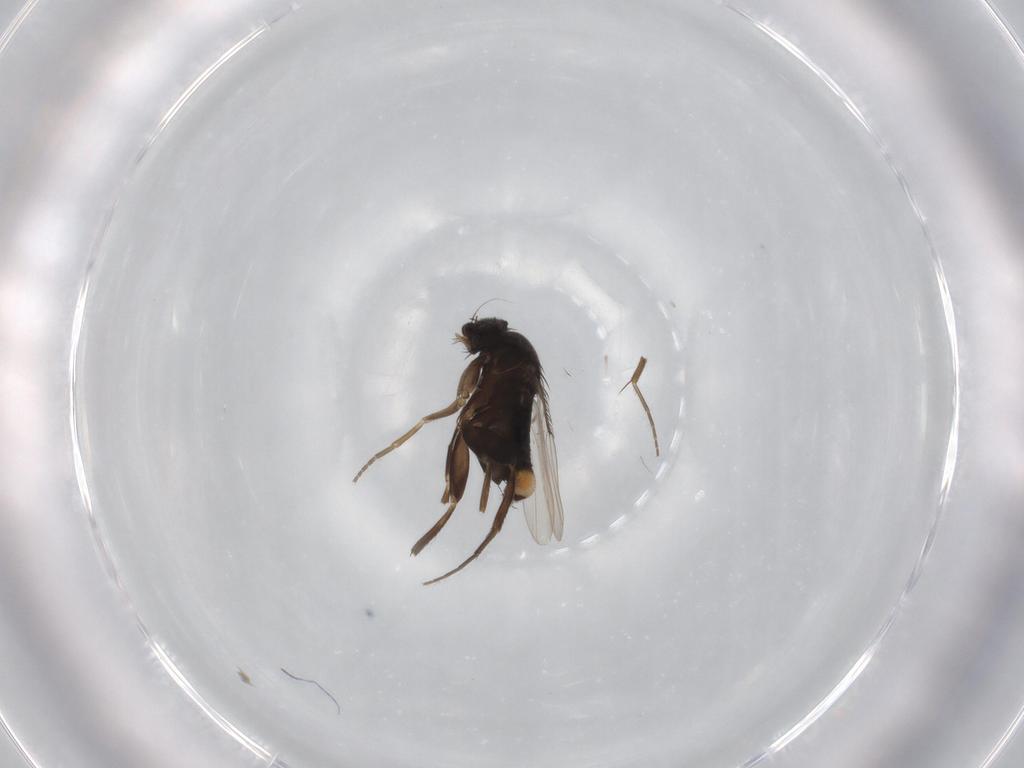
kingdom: Animalia
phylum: Arthropoda
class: Insecta
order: Diptera
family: Phoridae
